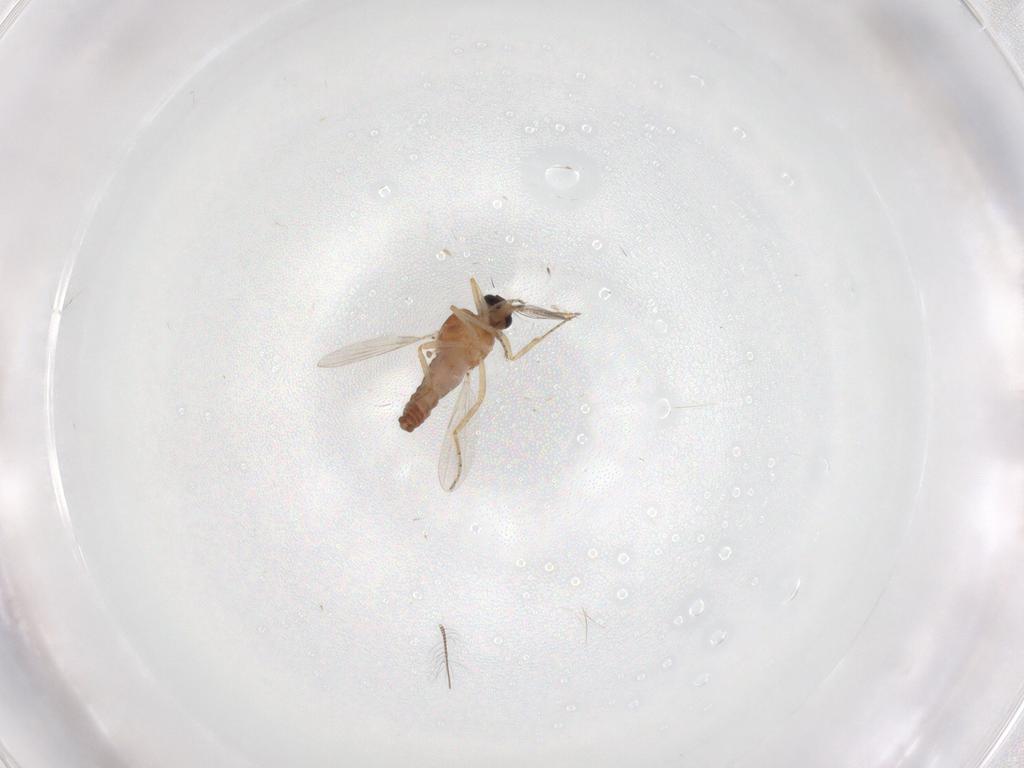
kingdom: Animalia
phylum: Arthropoda
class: Insecta
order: Diptera
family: Ceratopogonidae
